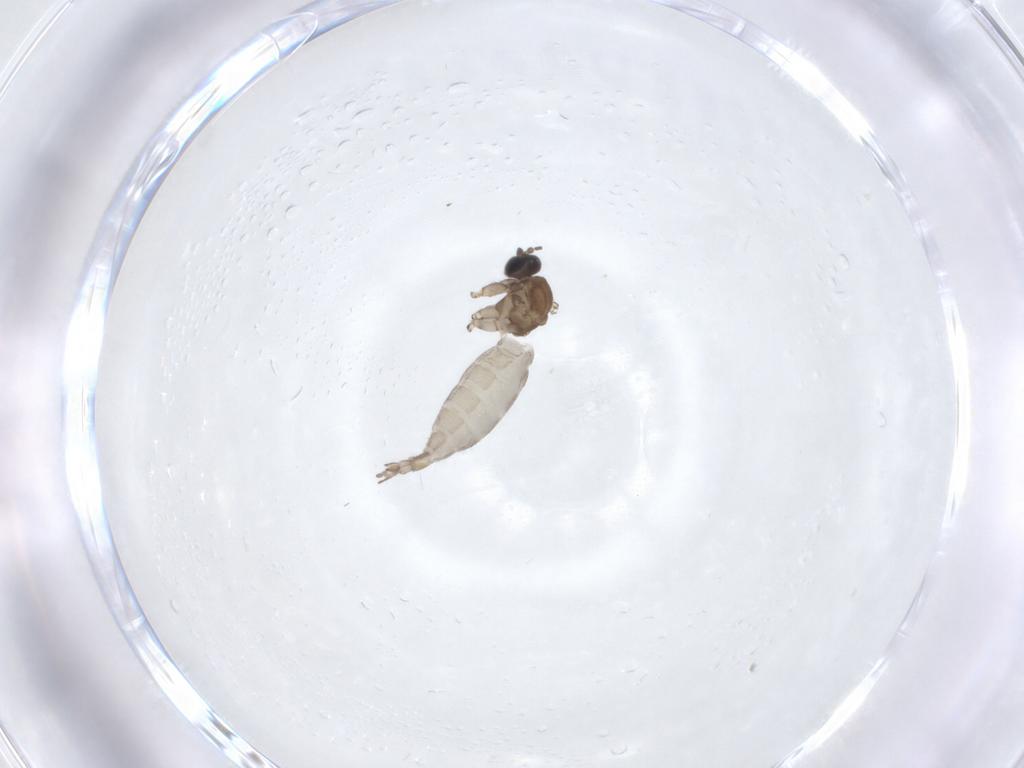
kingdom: Animalia
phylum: Arthropoda
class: Insecta
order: Diptera
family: Sciaridae
